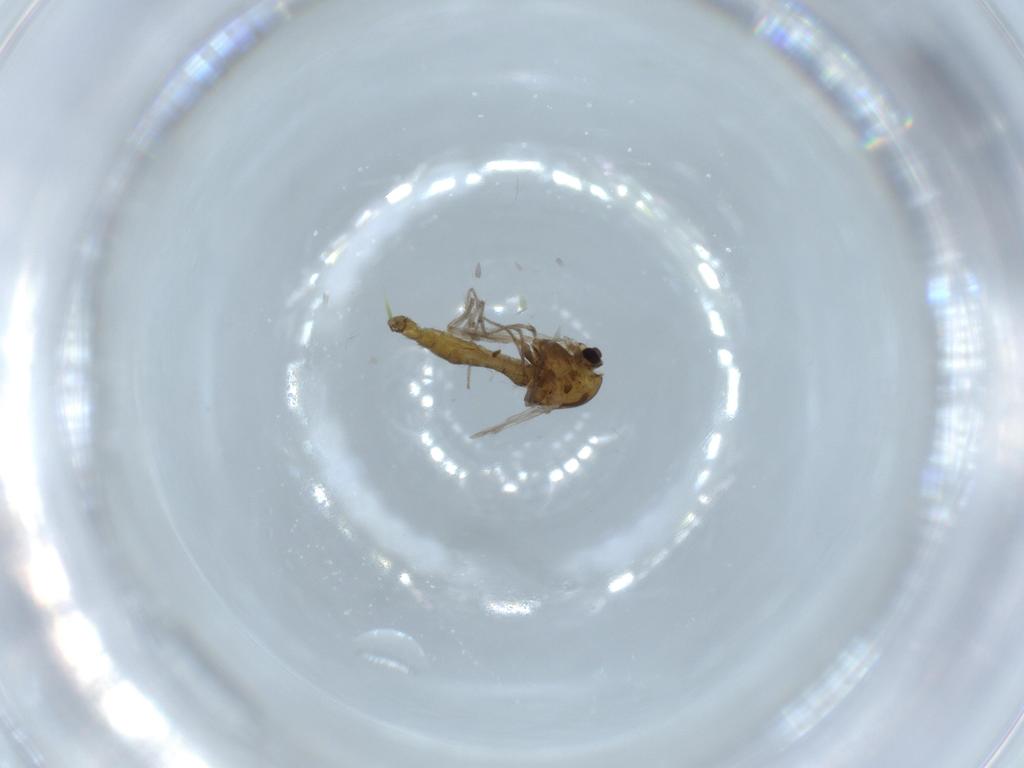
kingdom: Animalia
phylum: Arthropoda
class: Insecta
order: Diptera
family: Chironomidae
